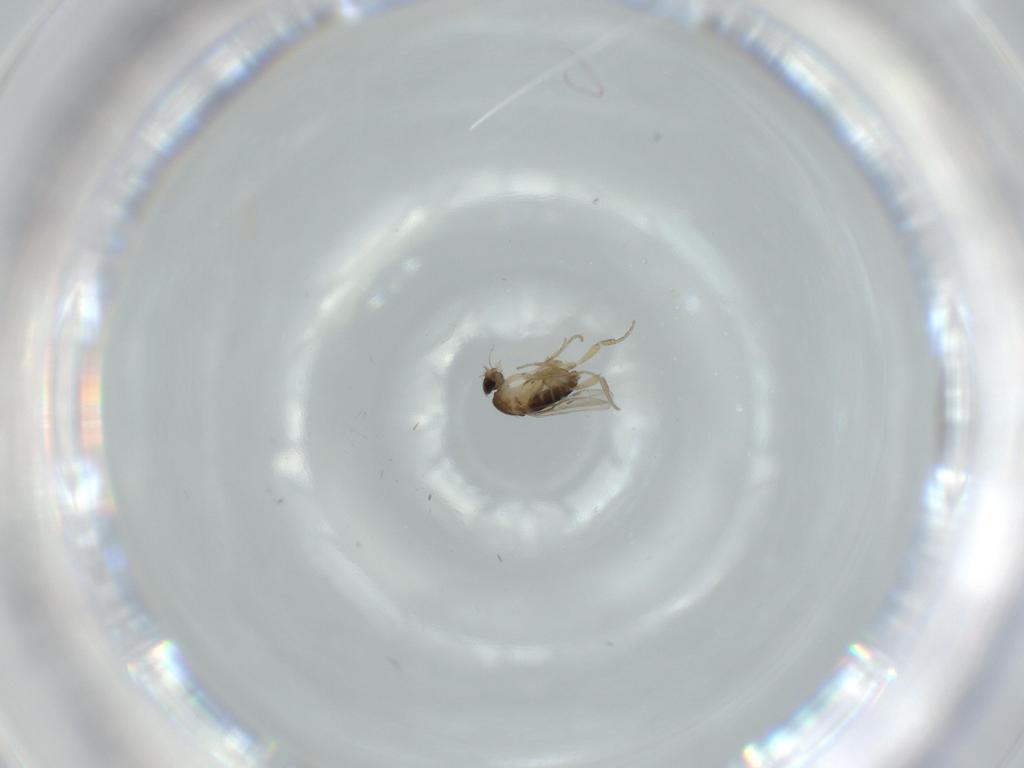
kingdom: Animalia
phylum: Arthropoda
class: Insecta
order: Diptera
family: Phoridae
